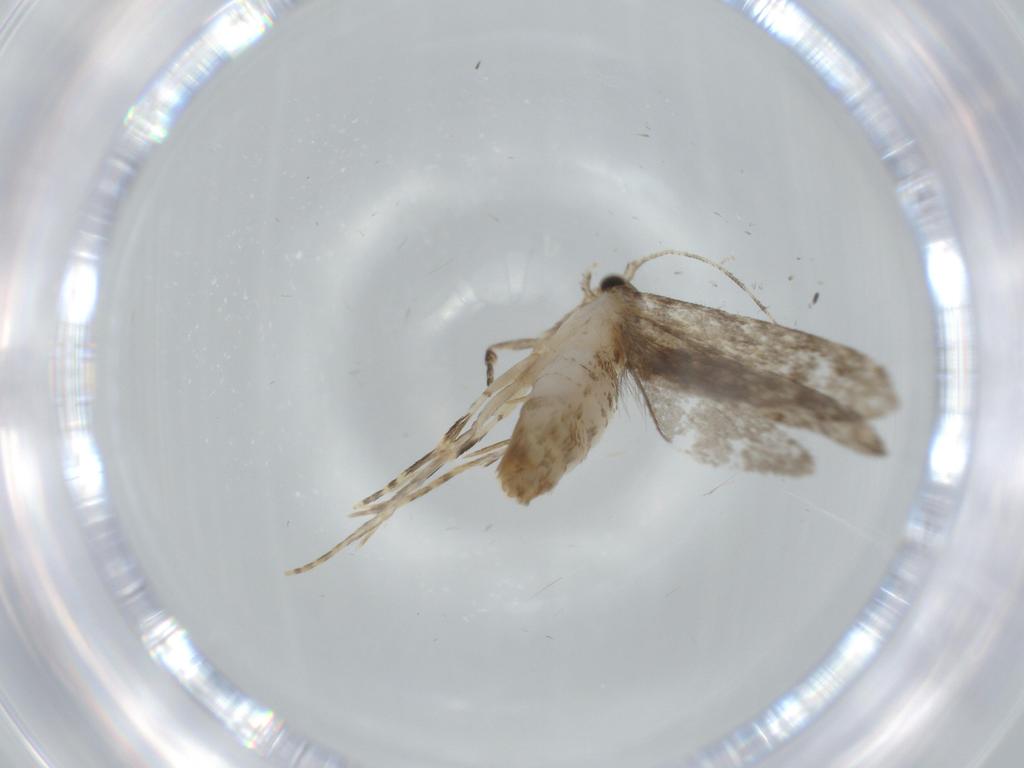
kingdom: Animalia
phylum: Arthropoda
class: Insecta
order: Lepidoptera
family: Tineidae
